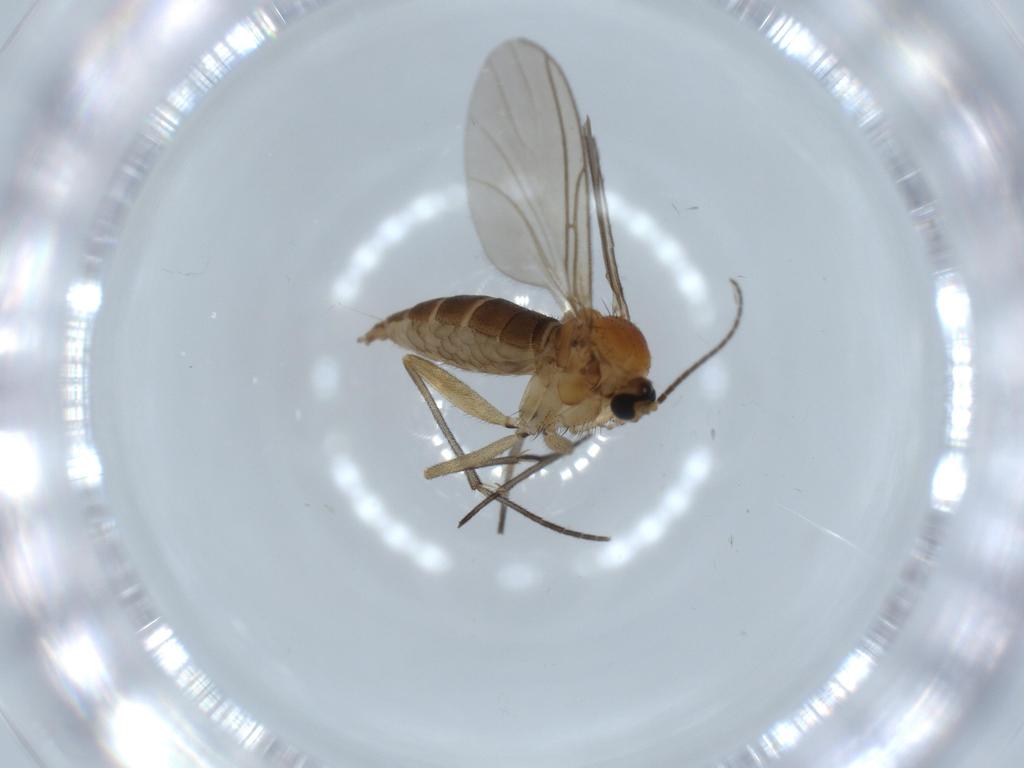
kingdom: Animalia
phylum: Arthropoda
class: Insecta
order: Diptera
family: Sciaridae
